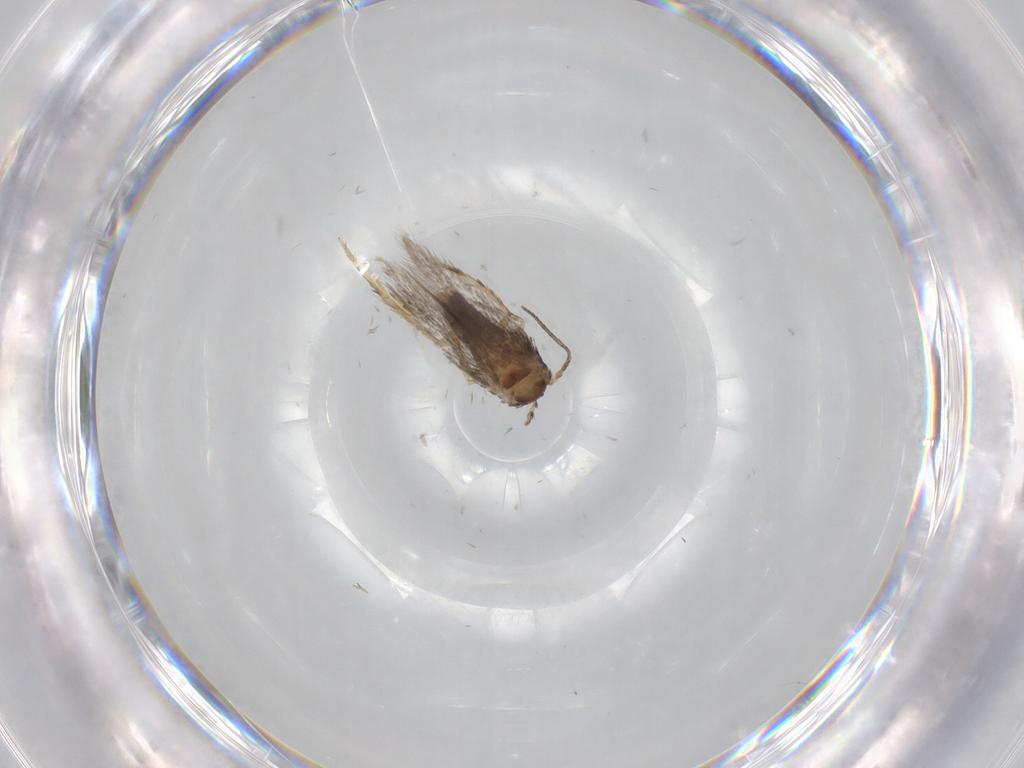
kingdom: Animalia
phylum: Arthropoda
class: Insecta
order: Lepidoptera
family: Nepticulidae
